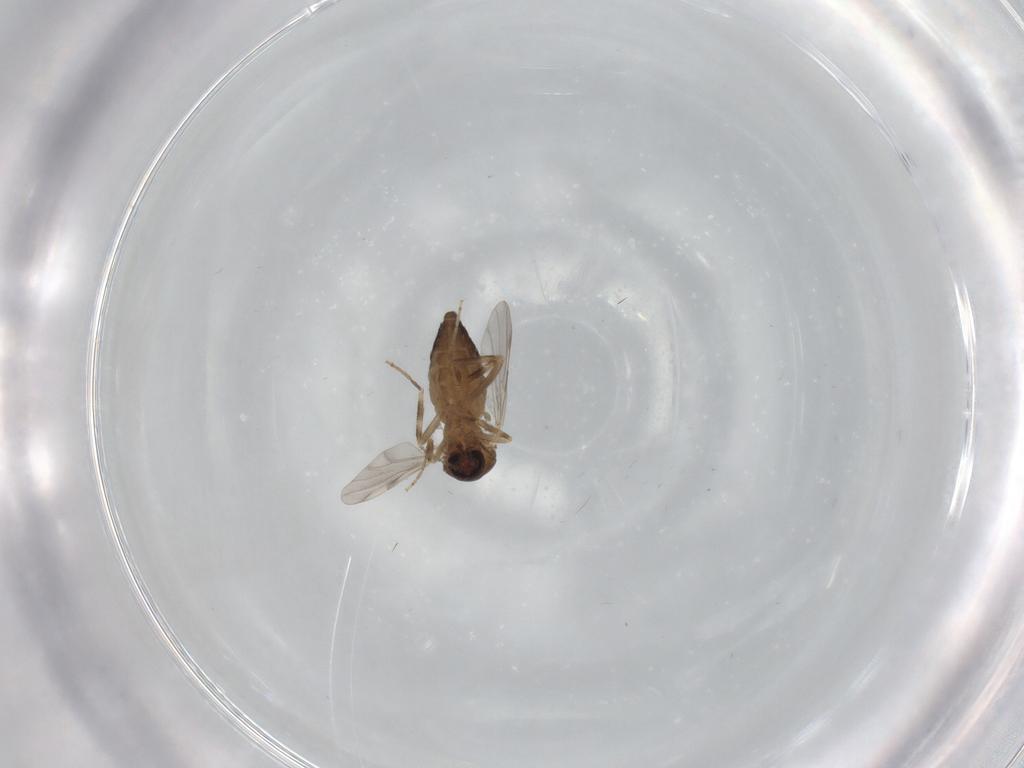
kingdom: Animalia
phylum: Arthropoda
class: Insecta
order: Diptera
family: Ceratopogonidae
